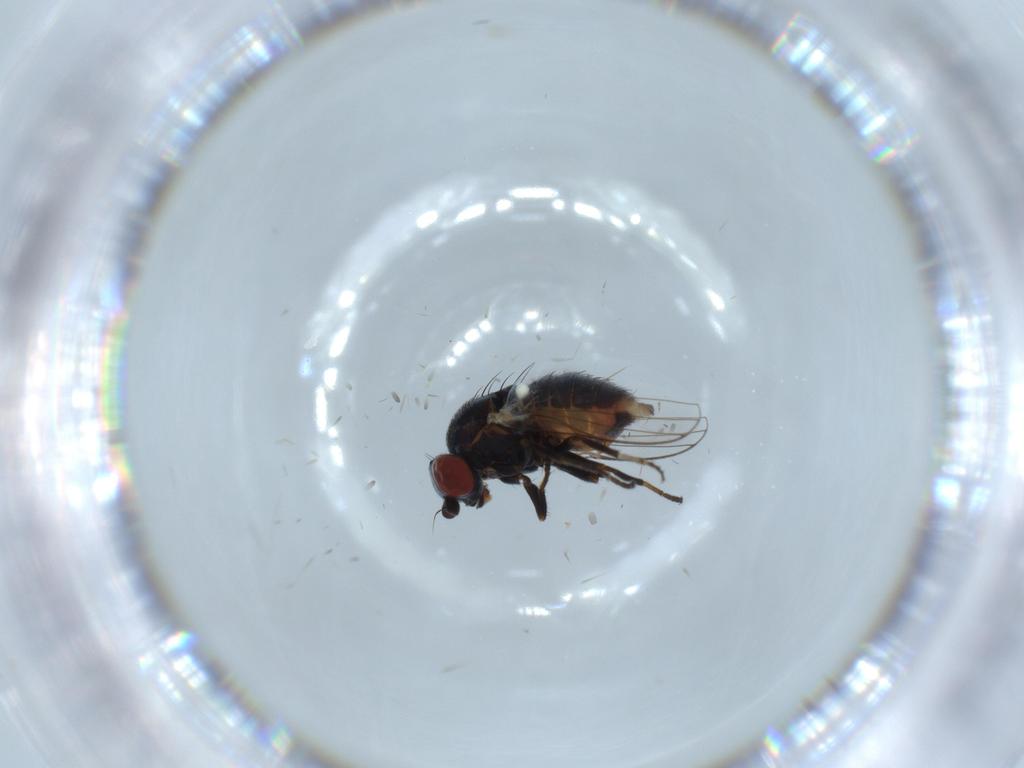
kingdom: Animalia
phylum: Arthropoda
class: Insecta
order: Diptera
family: Chamaemyiidae
